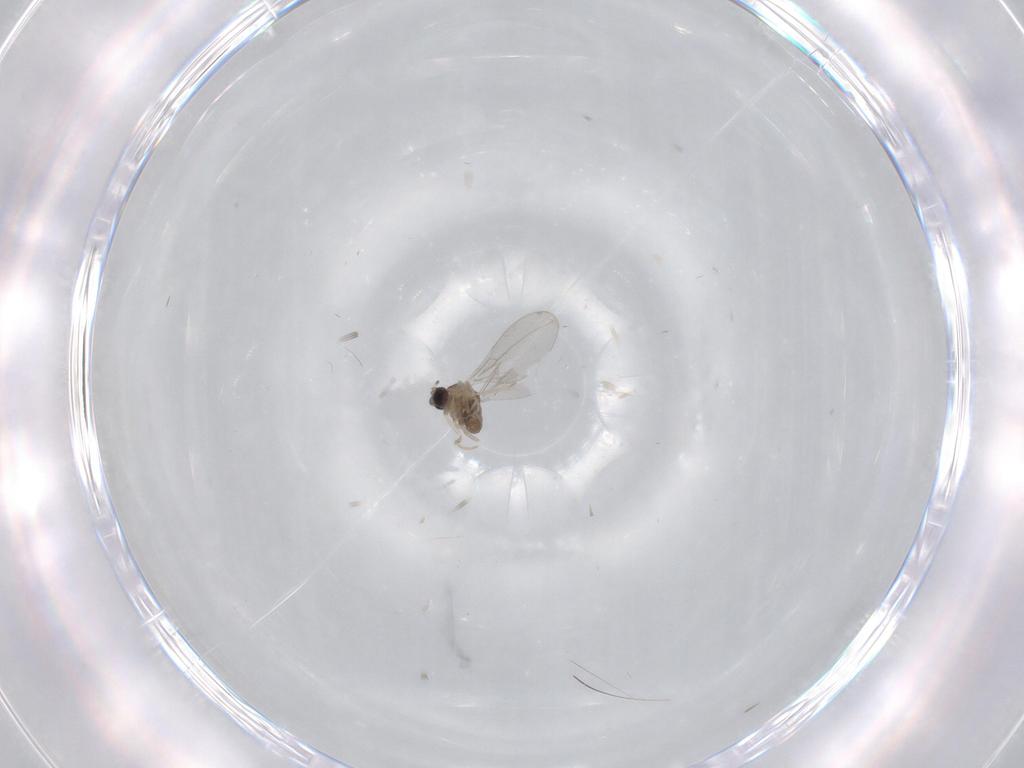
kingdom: Animalia
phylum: Arthropoda
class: Insecta
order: Diptera
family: Cecidomyiidae
